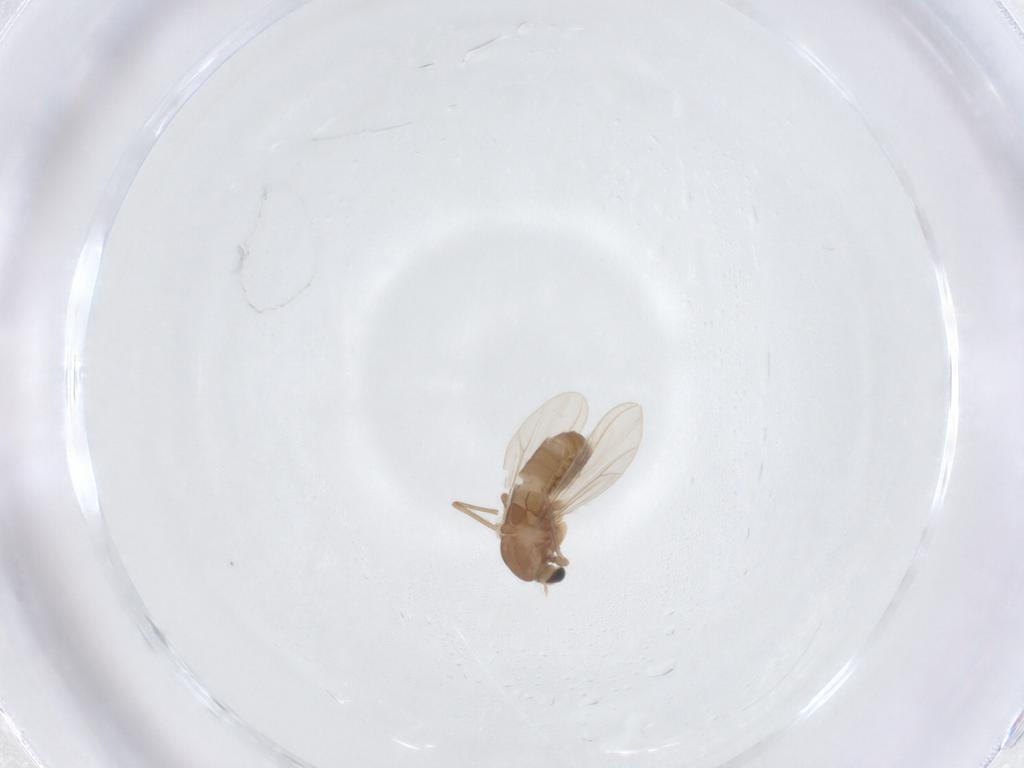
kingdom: Animalia
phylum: Arthropoda
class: Insecta
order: Diptera
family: Chironomidae
